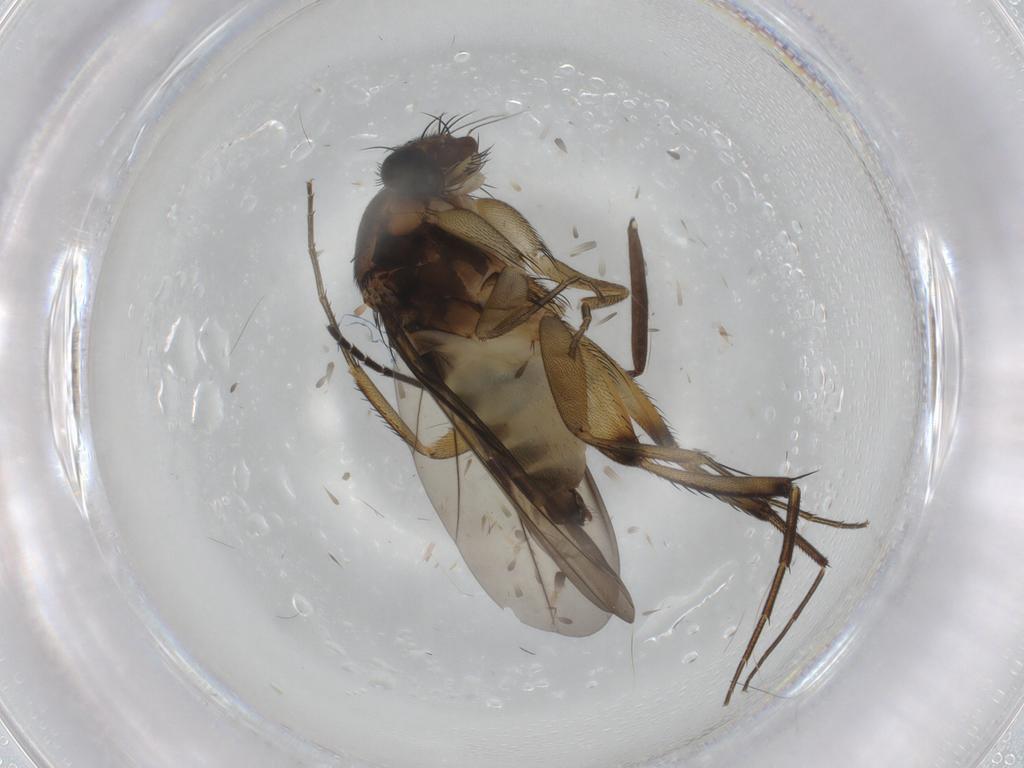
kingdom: Animalia
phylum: Arthropoda
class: Insecta
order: Diptera
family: Phoridae
